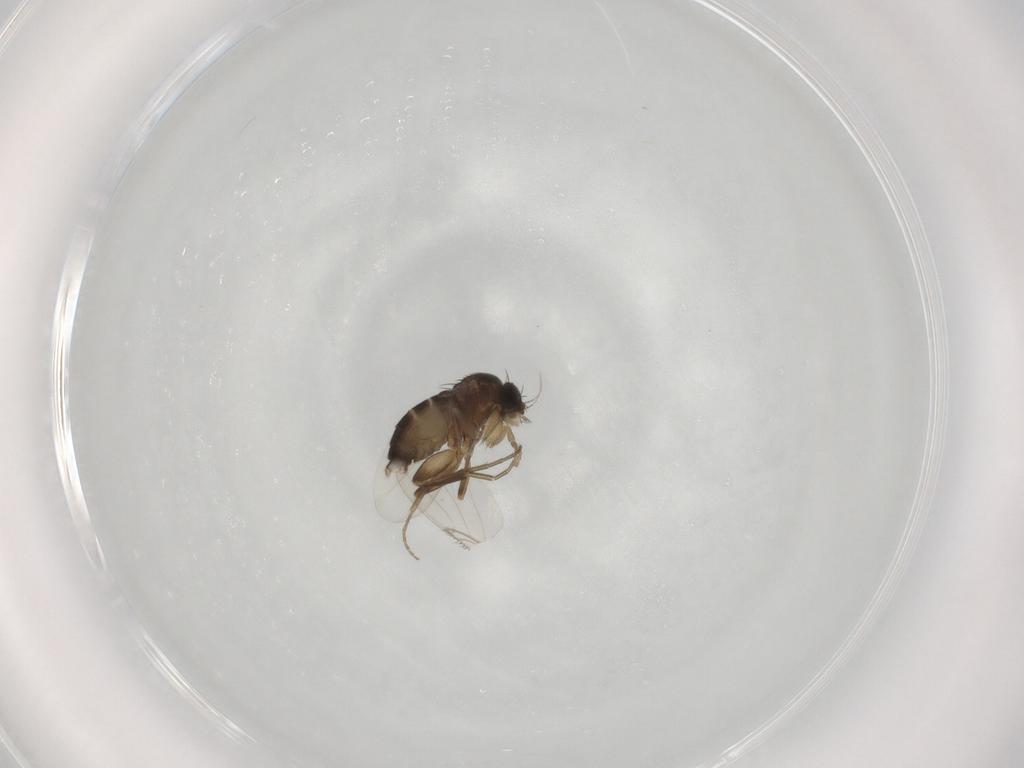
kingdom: Animalia
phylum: Arthropoda
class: Insecta
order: Diptera
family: Phoridae
